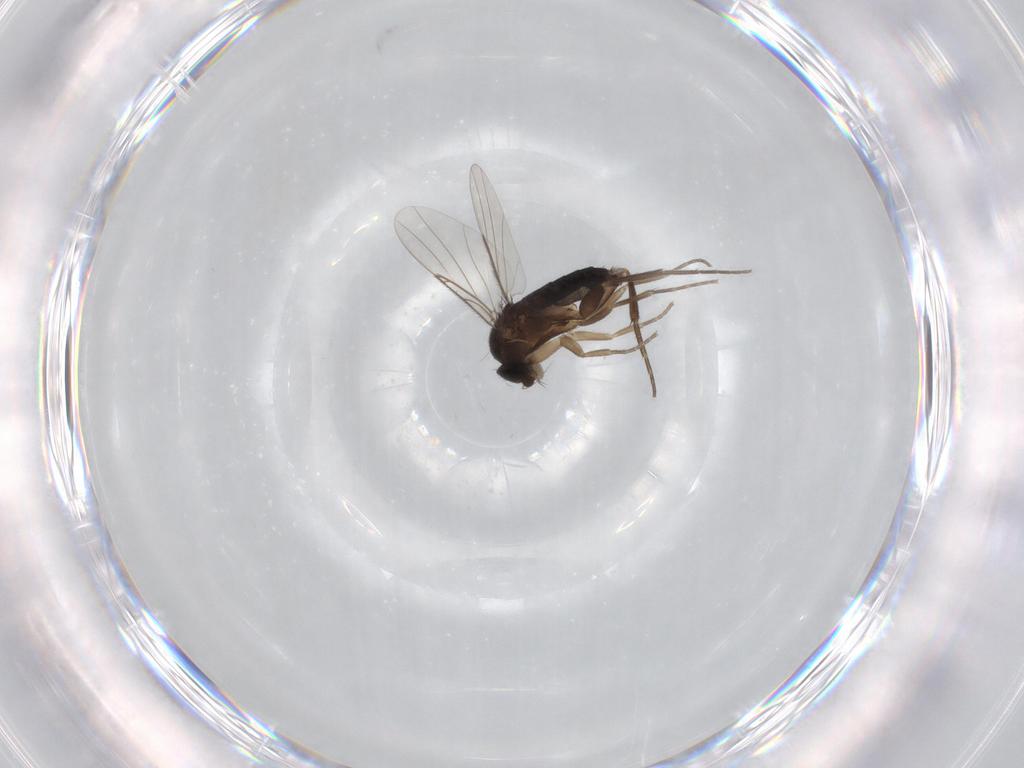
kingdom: Animalia
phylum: Arthropoda
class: Insecta
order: Diptera
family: Phoridae
